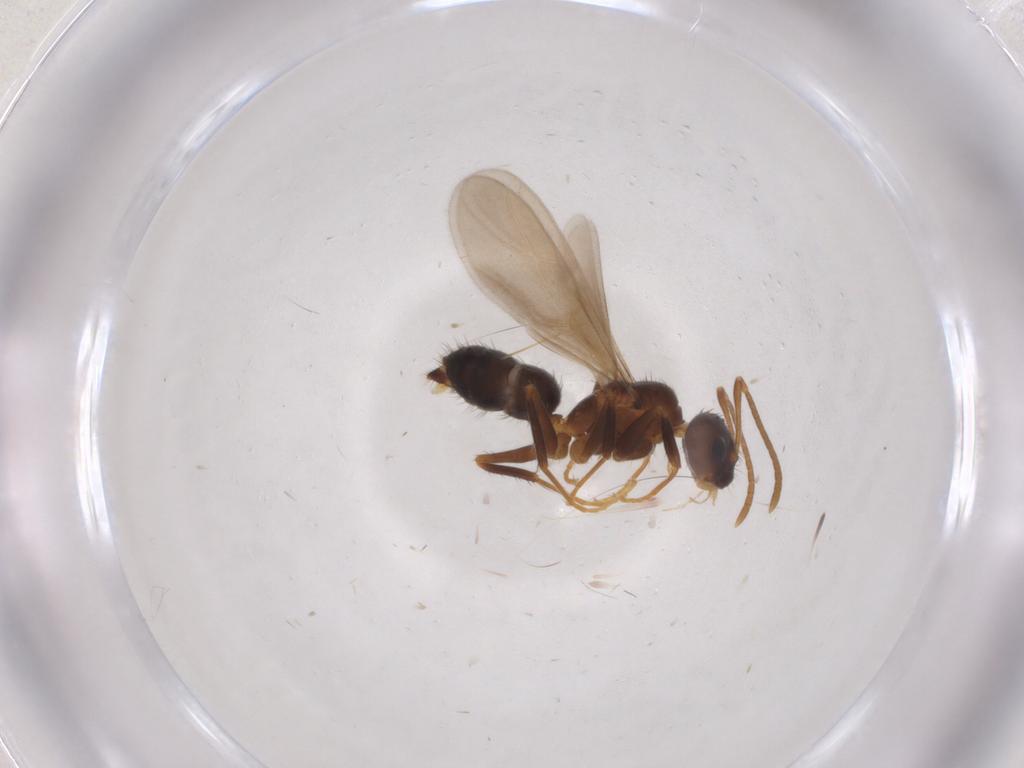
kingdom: Animalia
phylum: Arthropoda
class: Insecta
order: Hymenoptera
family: Formicidae
